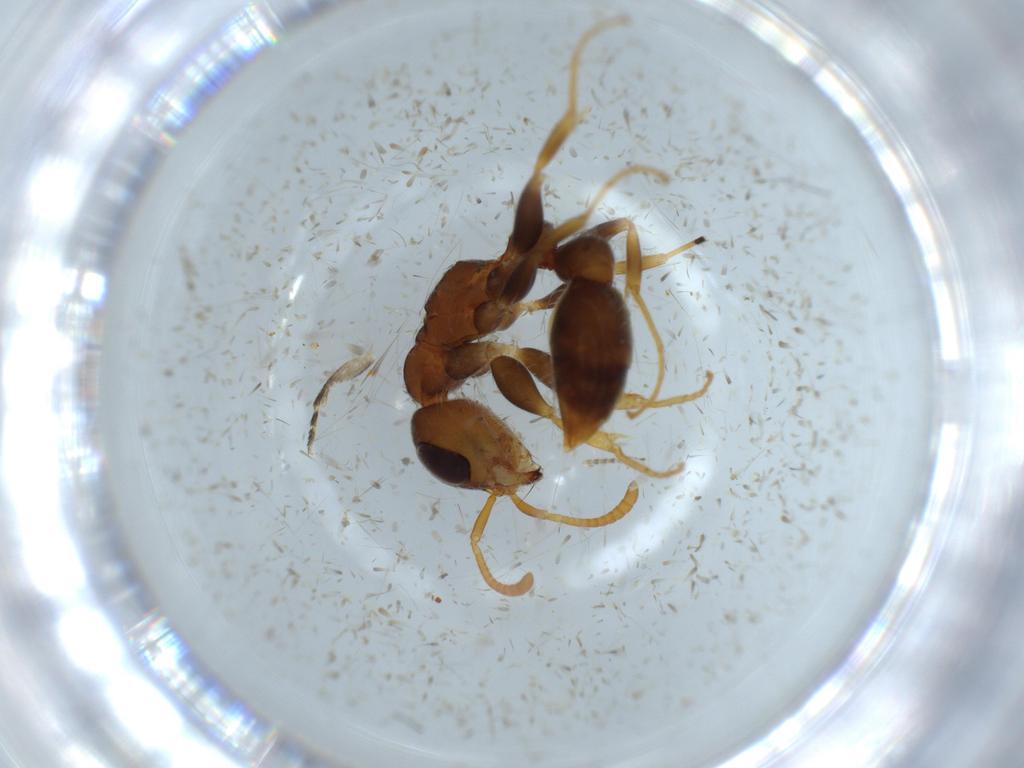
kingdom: Animalia
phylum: Arthropoda
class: Insecta
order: Hymenoptera
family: Formicidae
